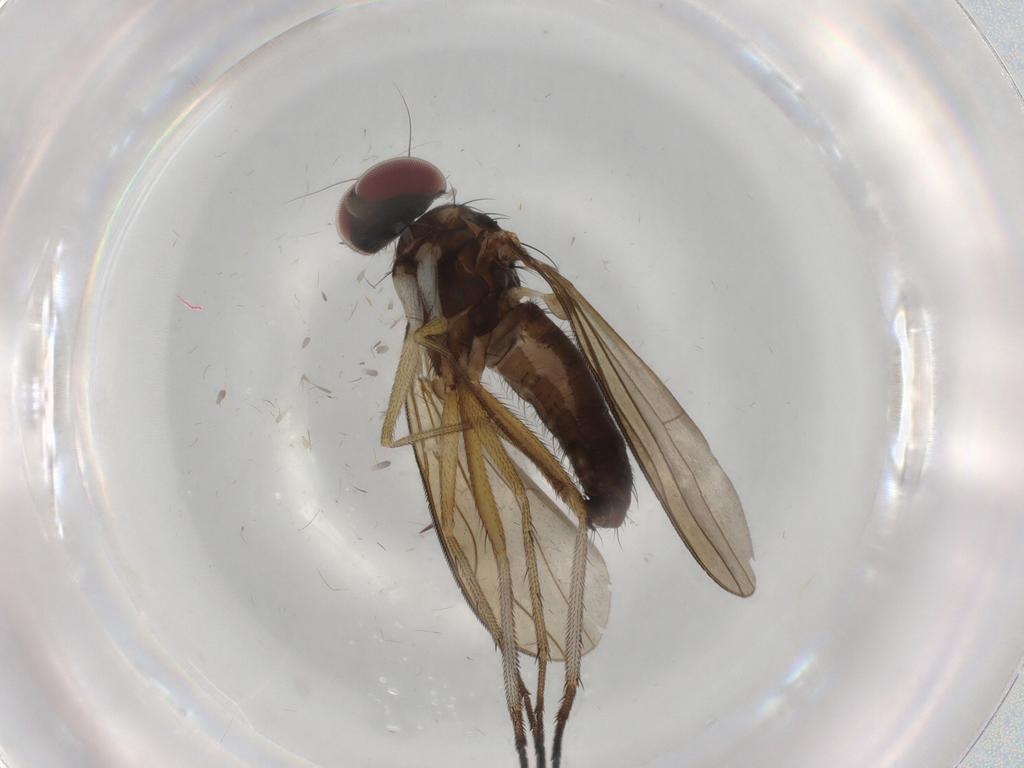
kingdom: Animalia
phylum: Arthropoda
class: Insecta
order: Diptera
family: Dolichopodidae
